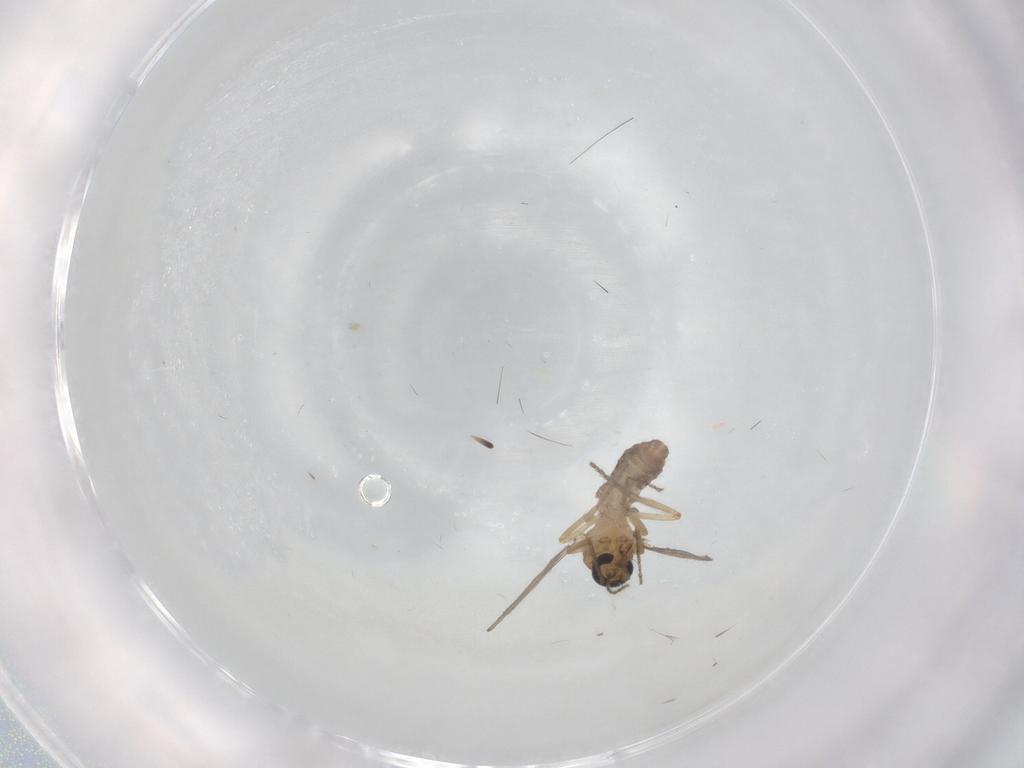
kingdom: Animalia
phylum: Arthropoda
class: Insecta
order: Diptera
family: Ceratopogonidae
